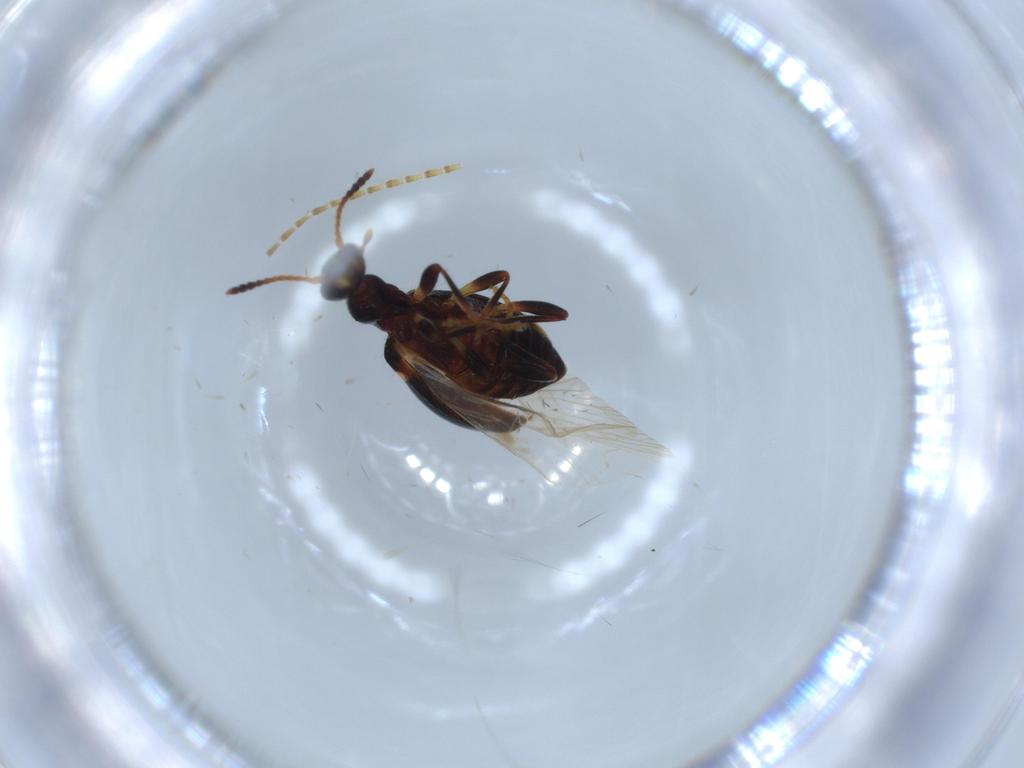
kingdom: Animalia
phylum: Arthropoda
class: Insecta
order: Coleoptera
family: Anthicidae
